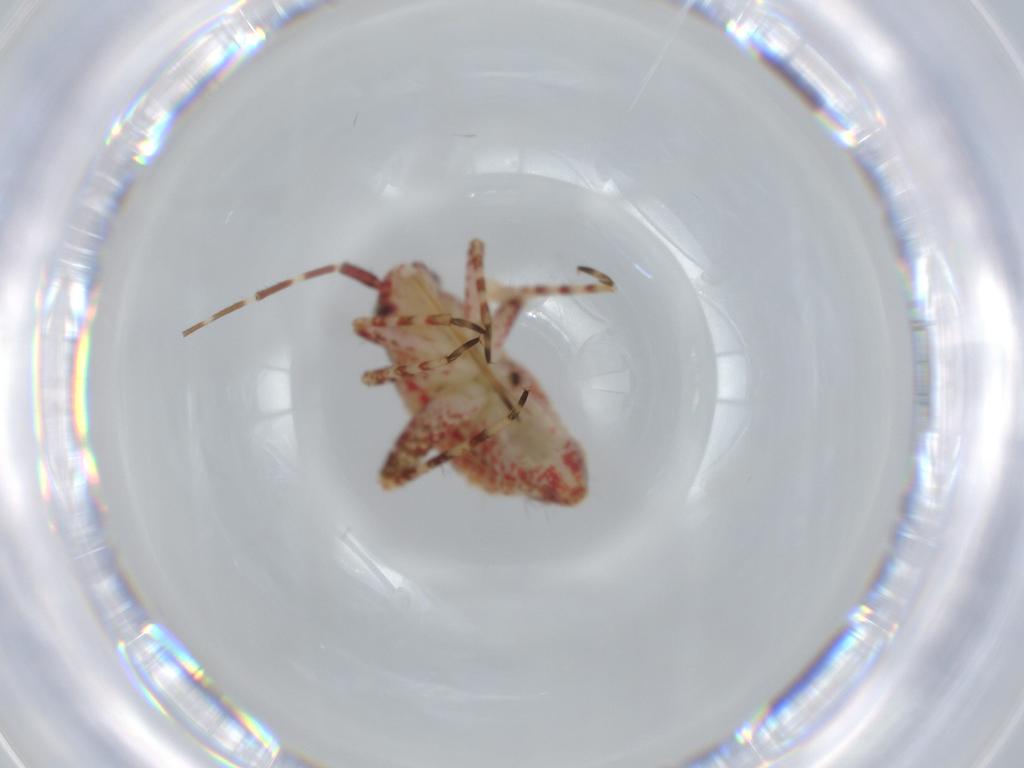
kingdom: Animalia
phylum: Arthropoda
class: Insecta
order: Hemiptera
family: Miridae
